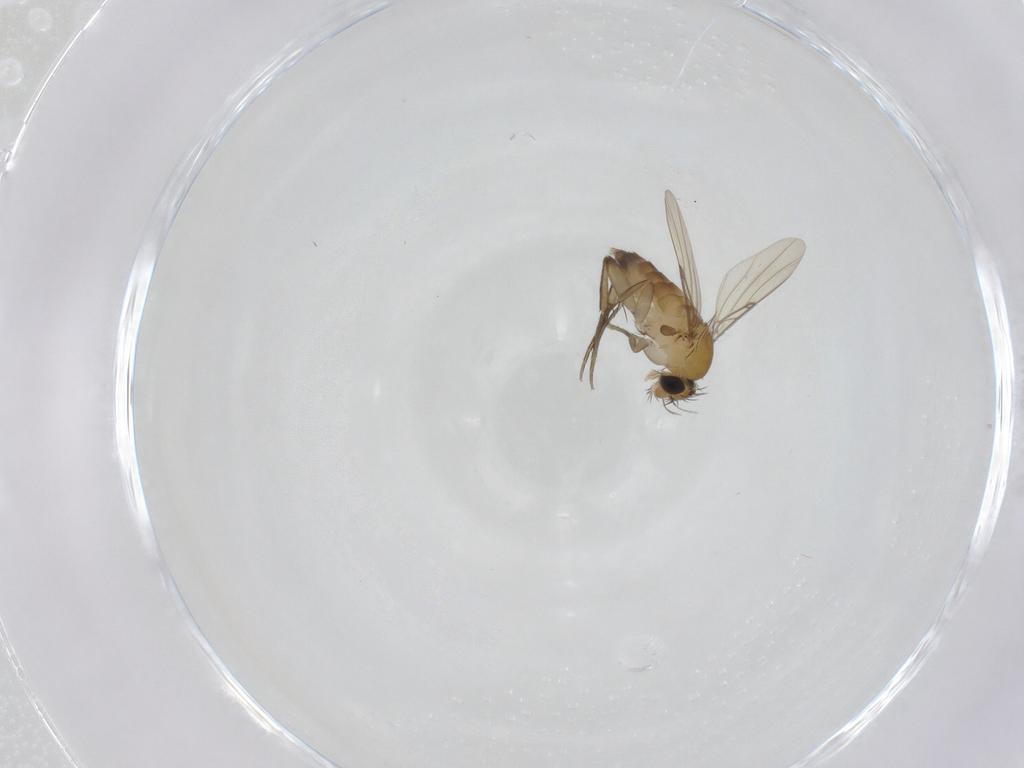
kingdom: Animalia
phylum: Arthropoda
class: Insecta
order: Diptera
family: Phoridae
